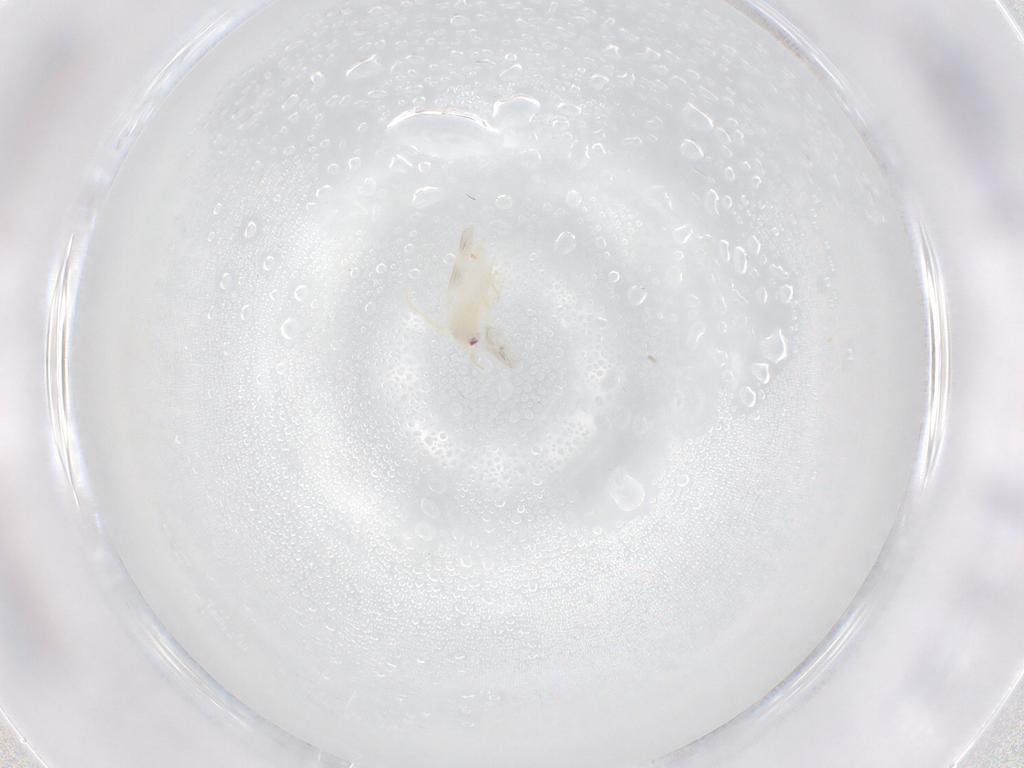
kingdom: Animalia
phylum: Arthropoda
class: Insecta
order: Hemiptera
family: Aleyrodidae
